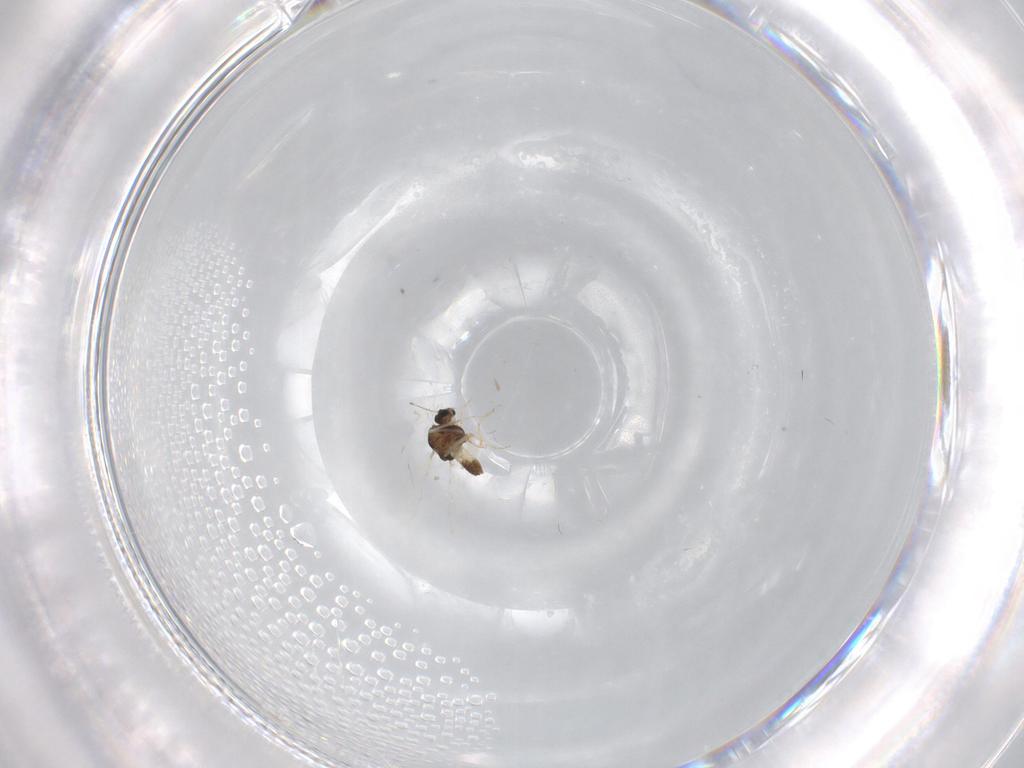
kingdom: Animalia
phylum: Arthropoda
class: Insecta
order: Diptera
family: Chironomidae
